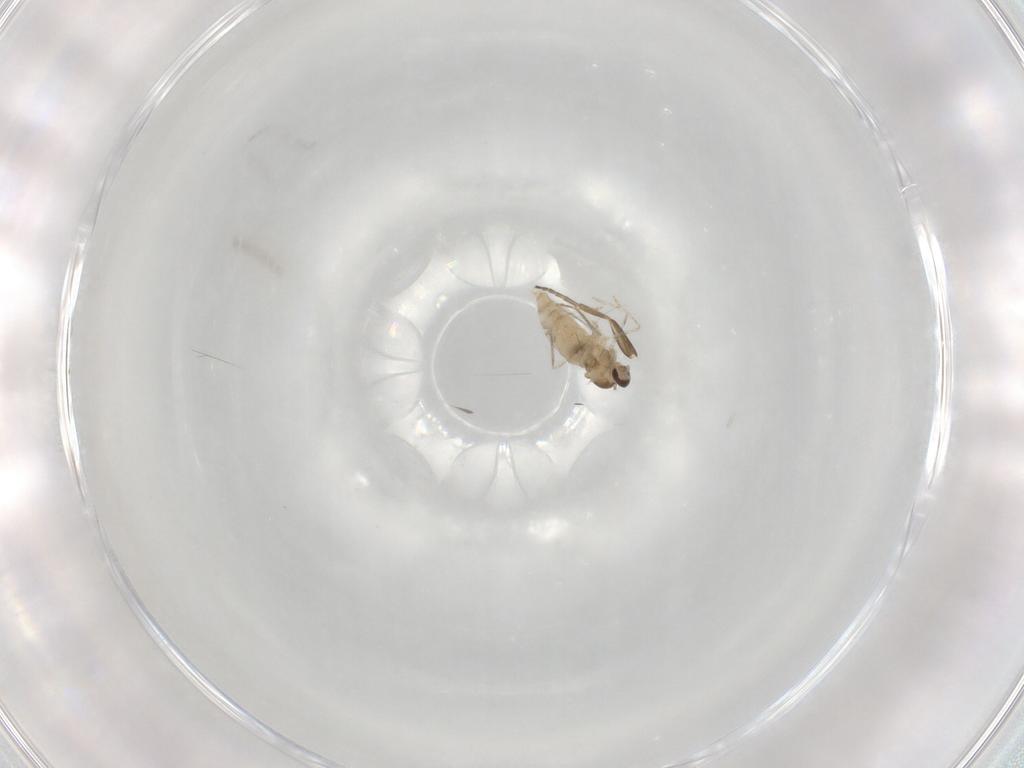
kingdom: Animalia
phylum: Arthropoda
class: Insecta
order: Diptera
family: Cecidomyiidae
